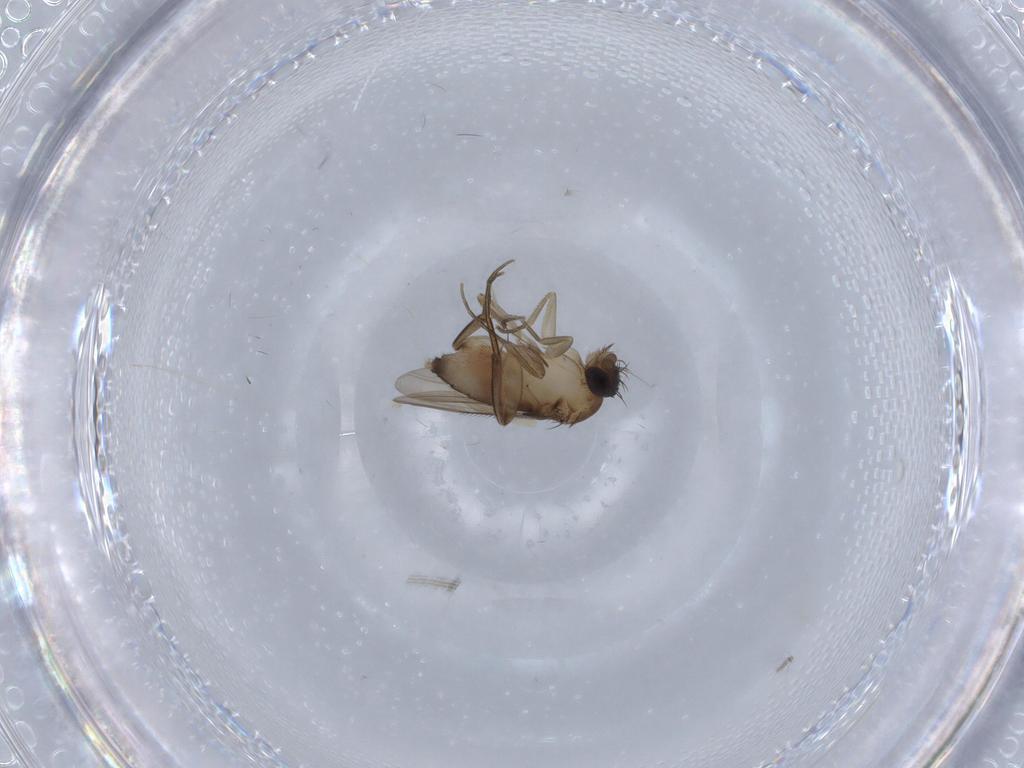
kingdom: Animalia
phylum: Arthropoda
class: Insecta
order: Diptera
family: Phoridae
